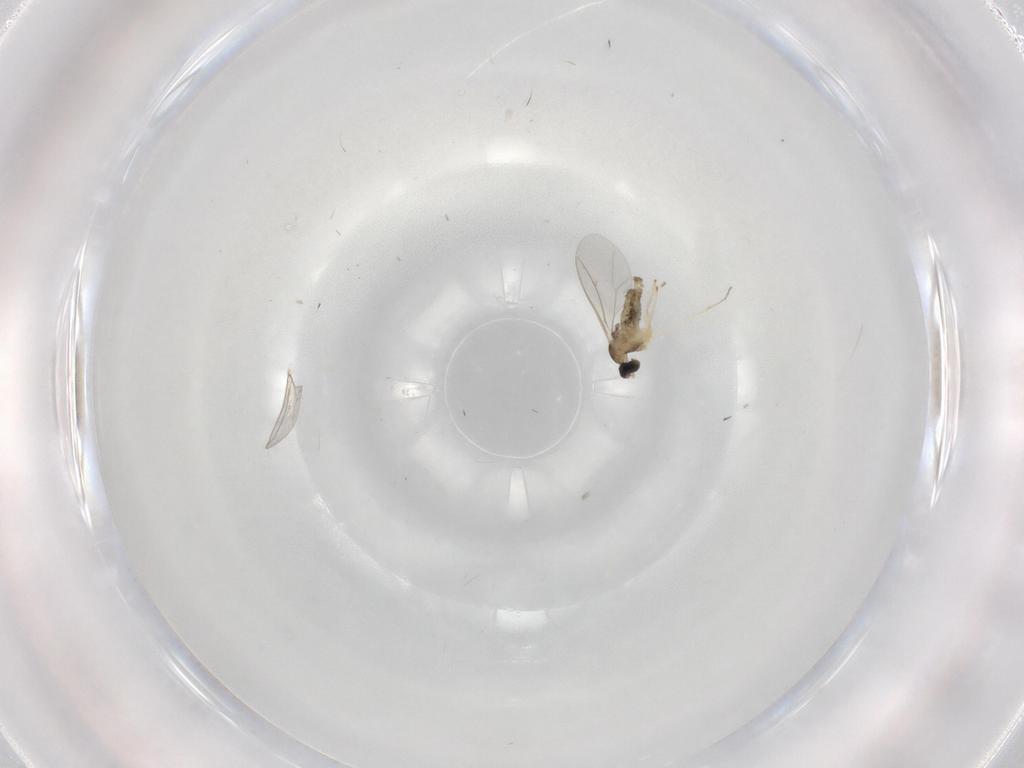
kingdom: Animalia
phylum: Arthropoda
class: Insecta
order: Diptera
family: Cecidomyiidae
